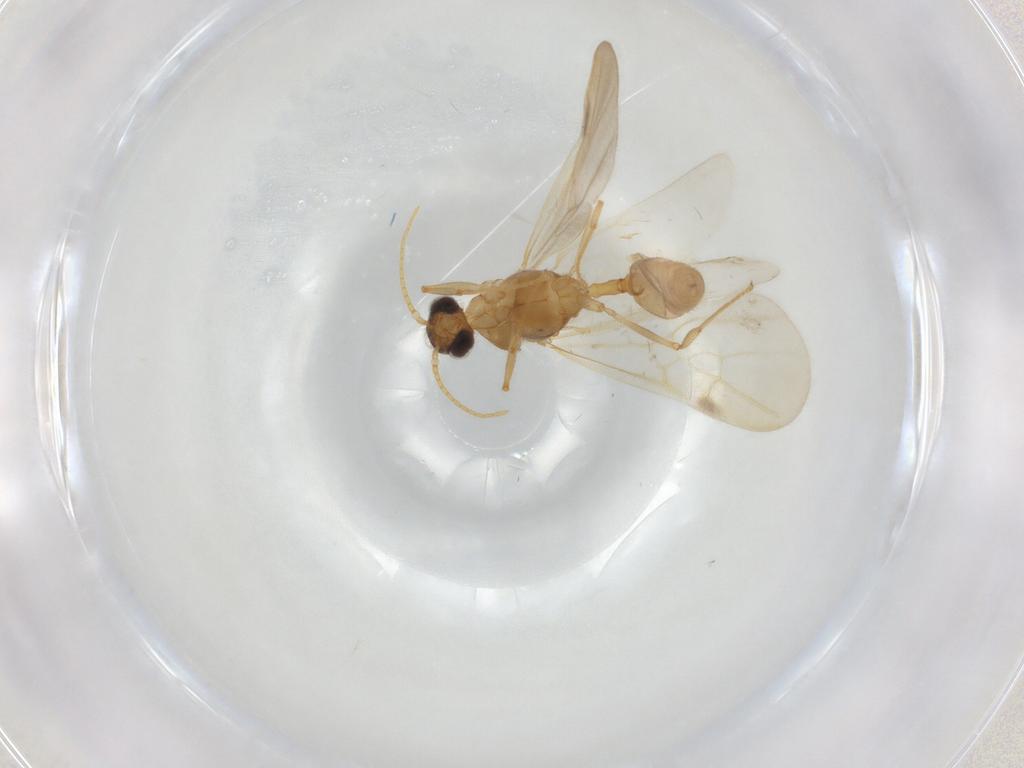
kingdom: Animalia
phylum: Arthropoda
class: Insecta
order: Hymenoptera
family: Formicidae
